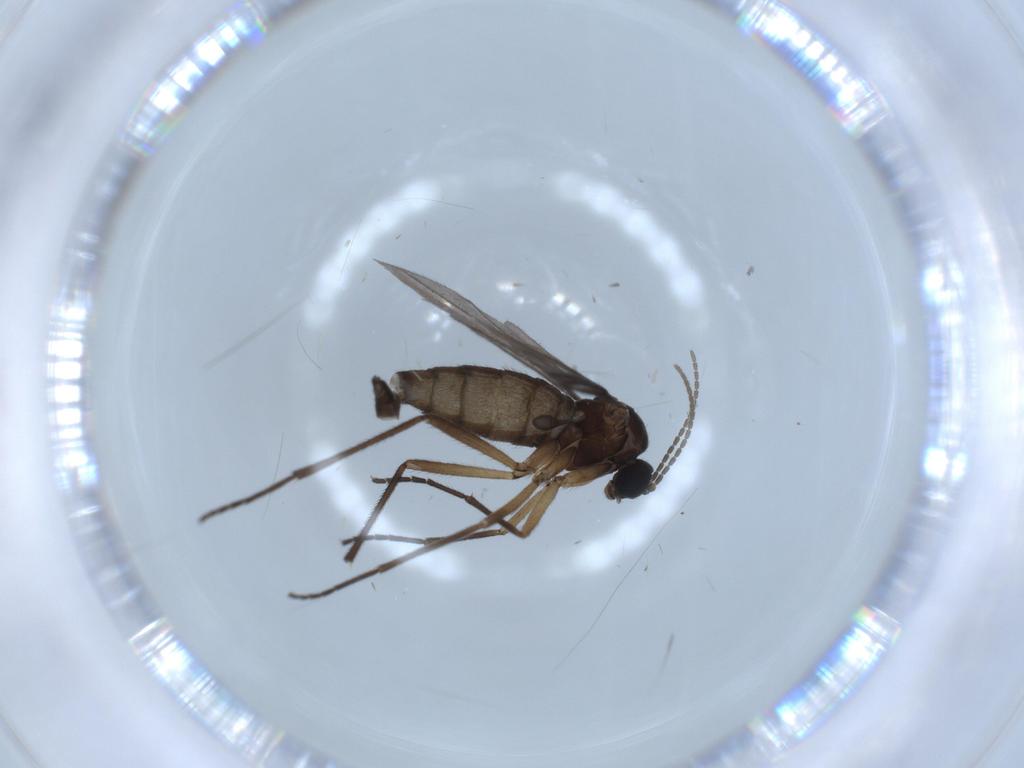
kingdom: Animalia
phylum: Arthropoda
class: Insecta
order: Diptera
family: Sciaridae
